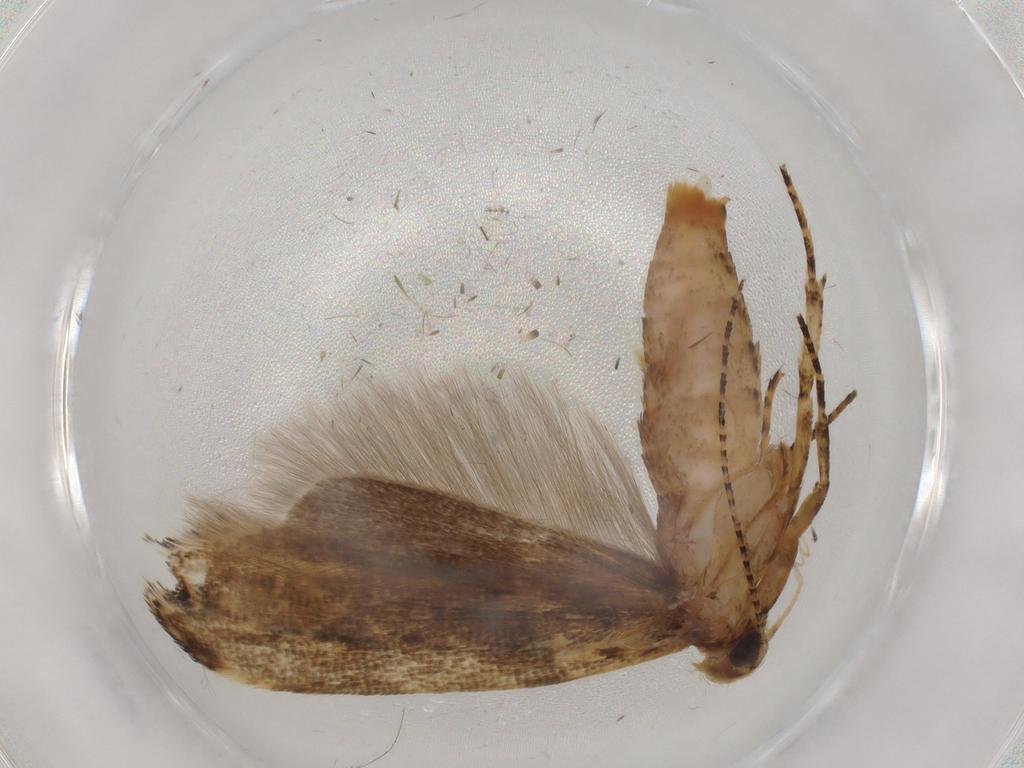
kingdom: Animalia
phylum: Arthropoda
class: Insecta
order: Lepidoptera
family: Gelechiidae
